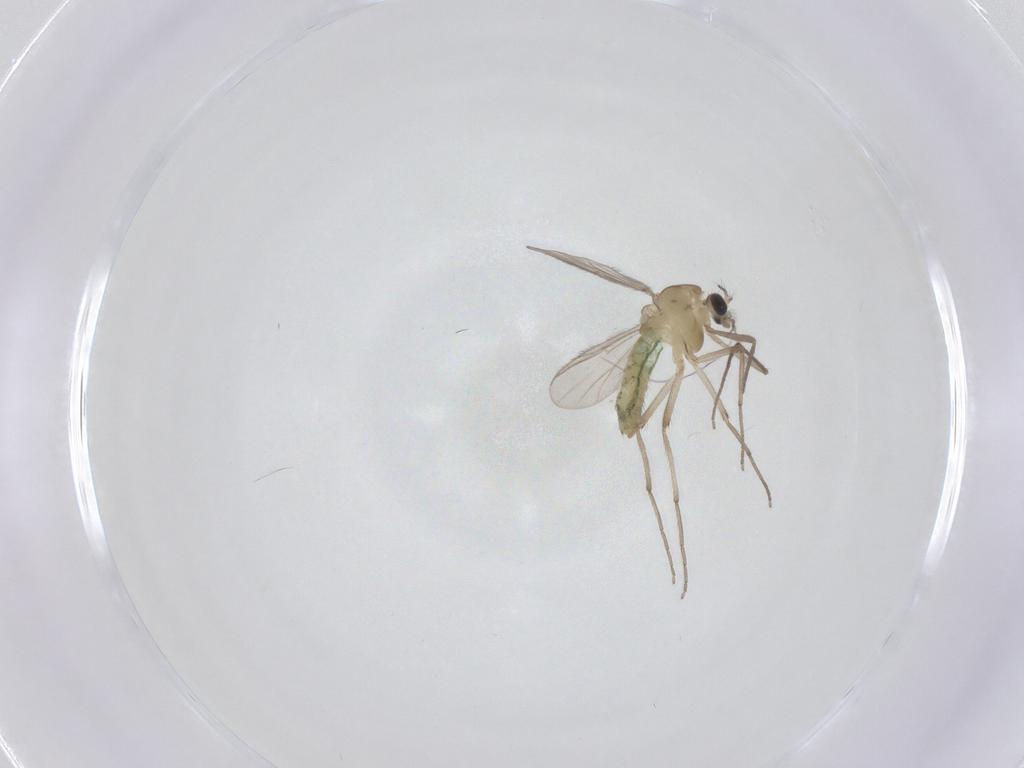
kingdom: Animalia
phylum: Arthropoda
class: Insecta
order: Diptera
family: Chironomidae
